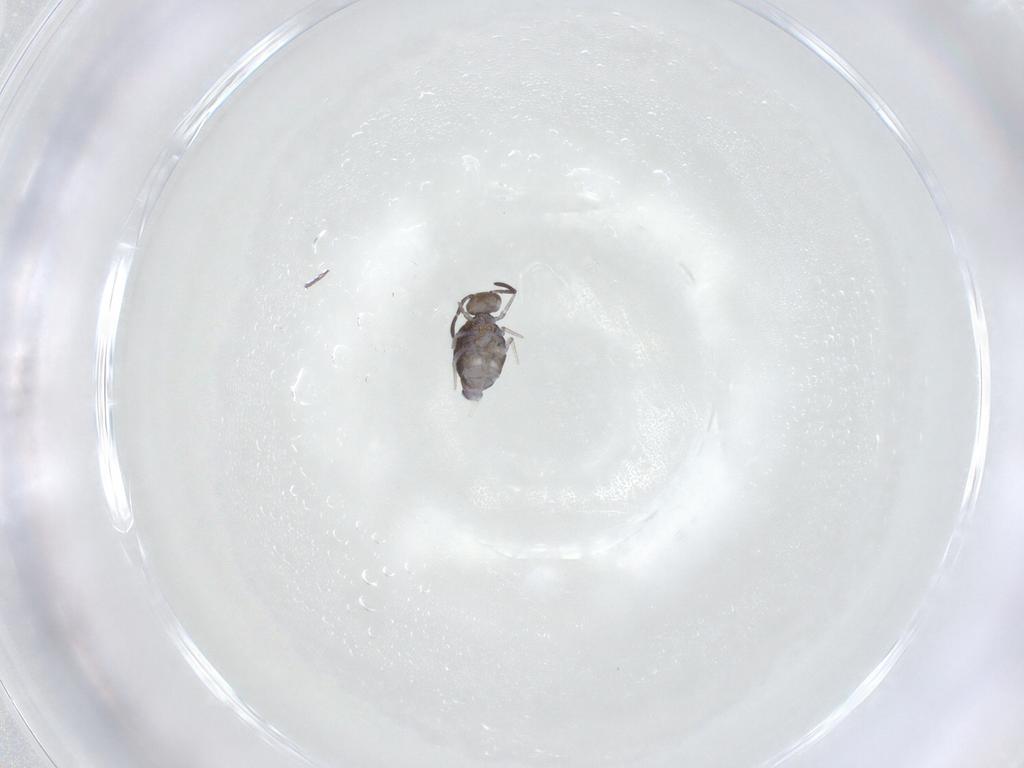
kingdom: Animalia
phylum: Arthropoda
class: Collembola
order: Symphypleona
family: Katiannidae
